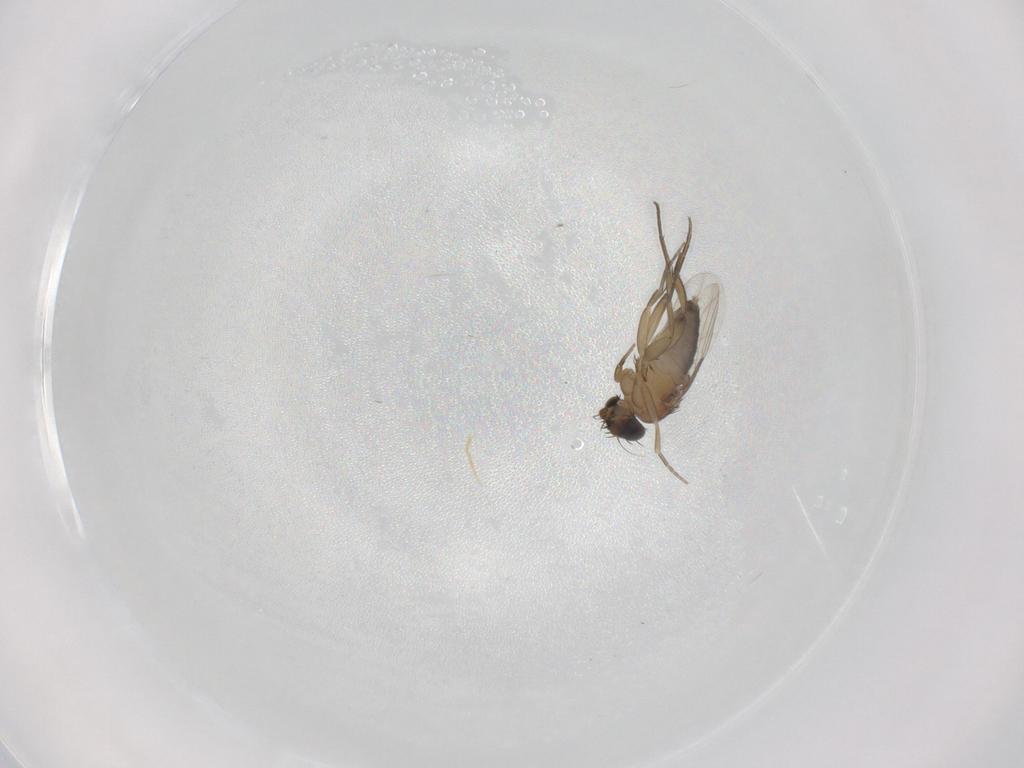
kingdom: Animalia
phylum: Arthropoda
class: Insecta
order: Diptera
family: Phoridae
